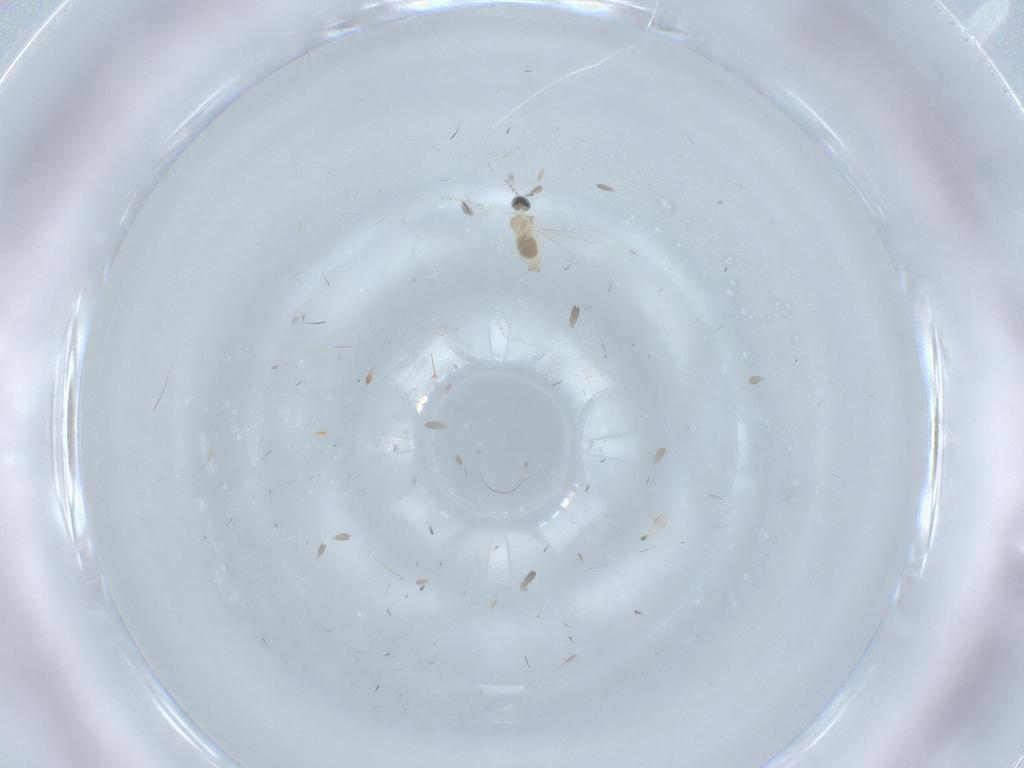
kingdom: Animalia
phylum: Arthropoda
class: Insecta
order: Diptera
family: Cecidomyiidae
